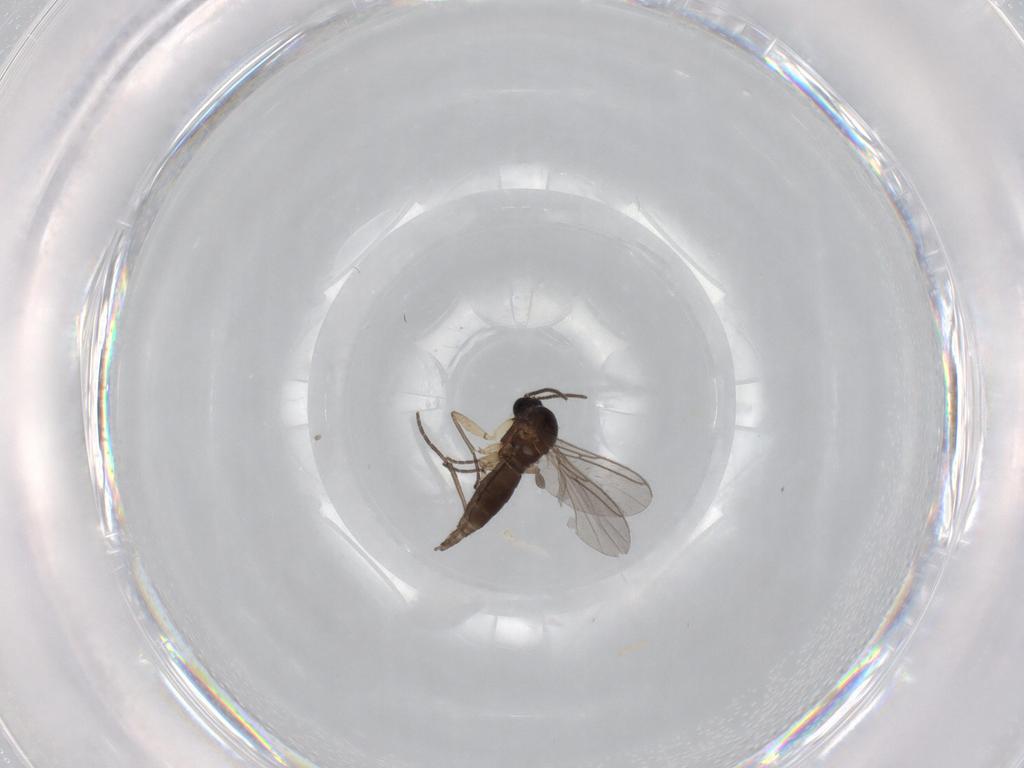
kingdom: Animalia
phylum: Arthropoda
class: Insecta
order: Diptera
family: Sciaridae
